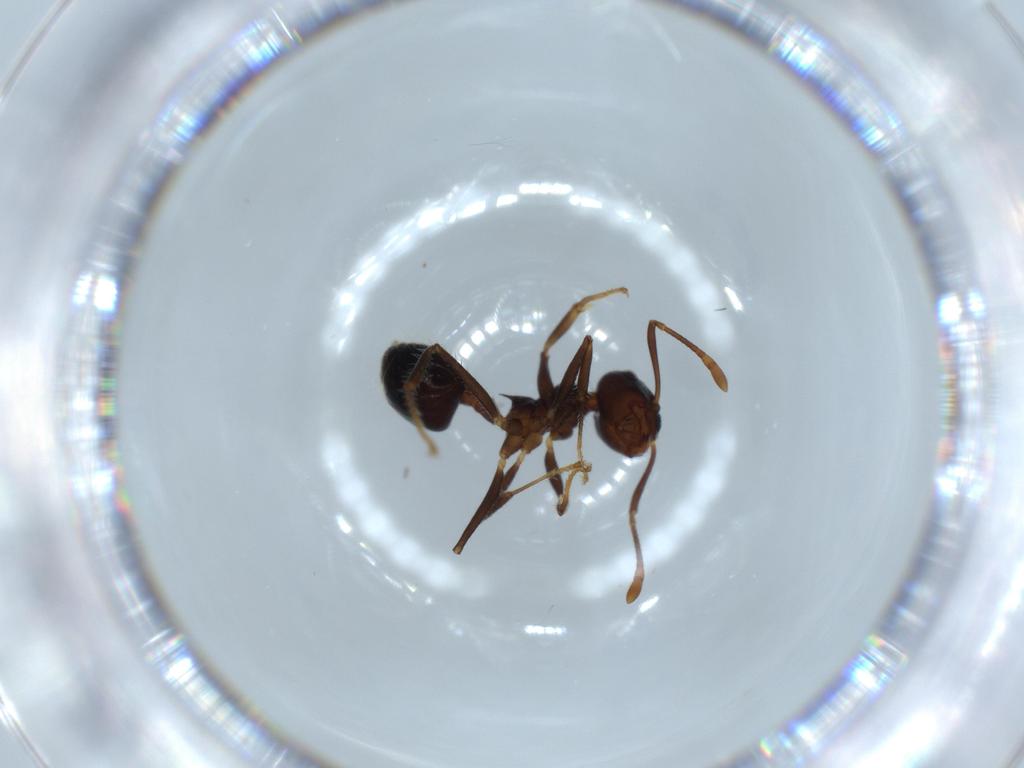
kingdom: Animalia
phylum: Arthropoda
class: Insecta
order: Hymenoptera
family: Formicidae
